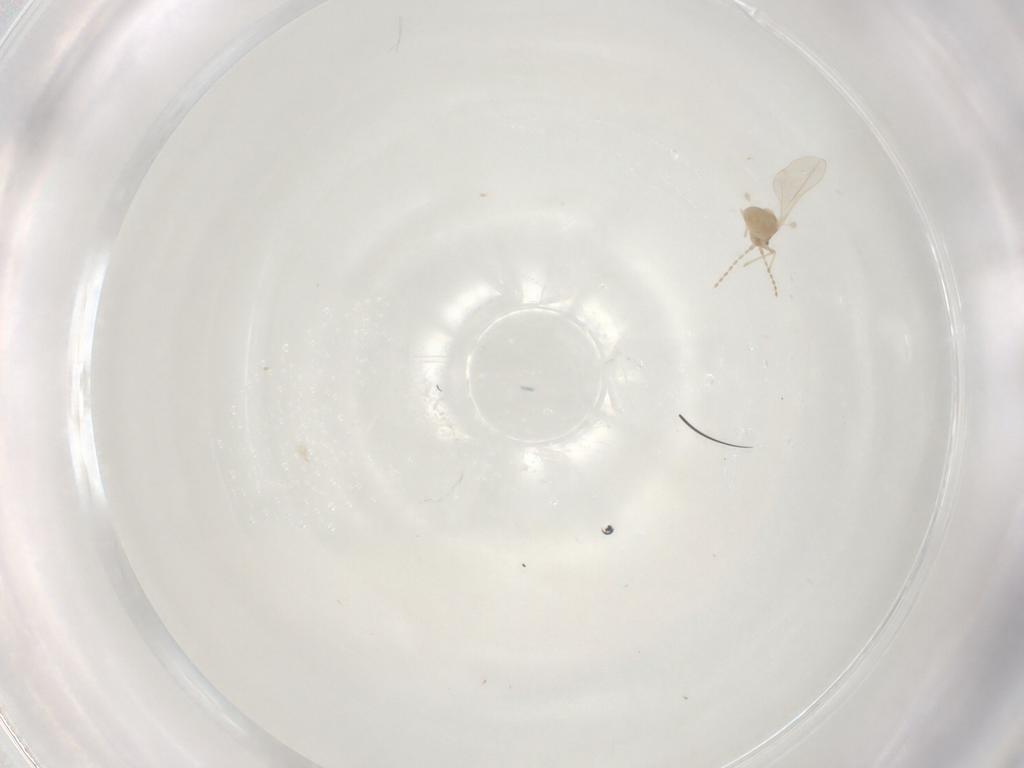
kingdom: Animalia
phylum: Arthropoda
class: Insecta
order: Diptera
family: Cecidomyiidae
